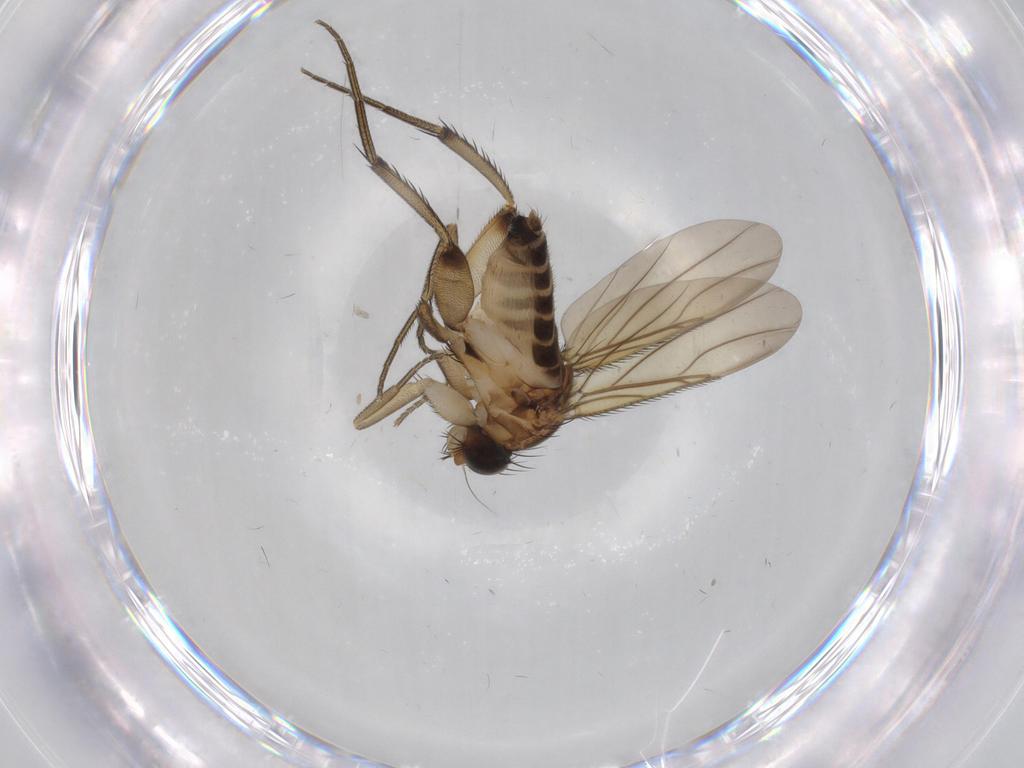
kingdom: Animalia
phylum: Arthropoda
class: Insecta
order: Diptera
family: Phoridae
